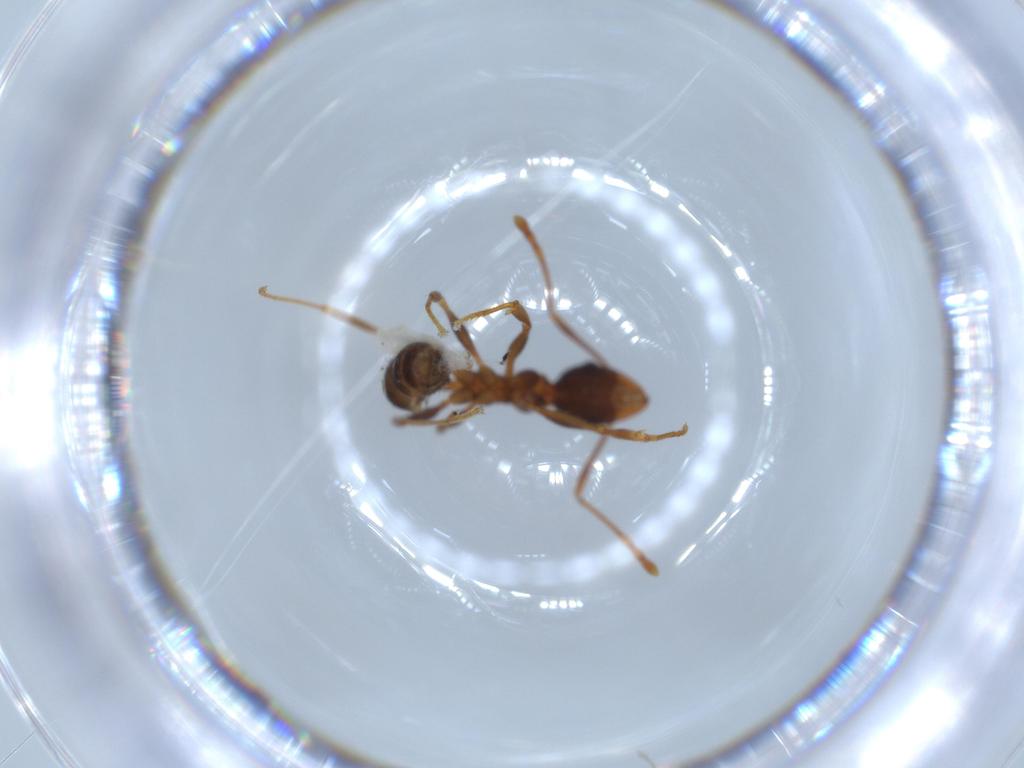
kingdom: Animalia
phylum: Arthropoda
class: Insecta
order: Hymenoptera
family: Formicidae
